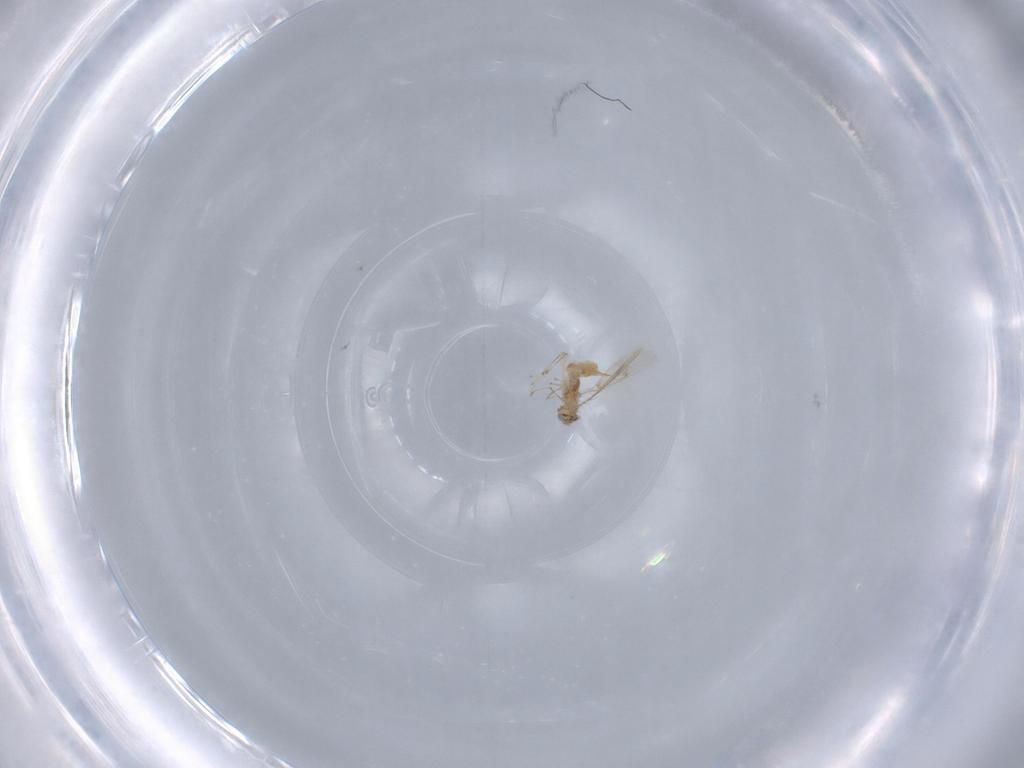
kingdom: Animalia
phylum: Arthropoda
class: Insecta
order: Hymenoptera
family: Aphelinidae
